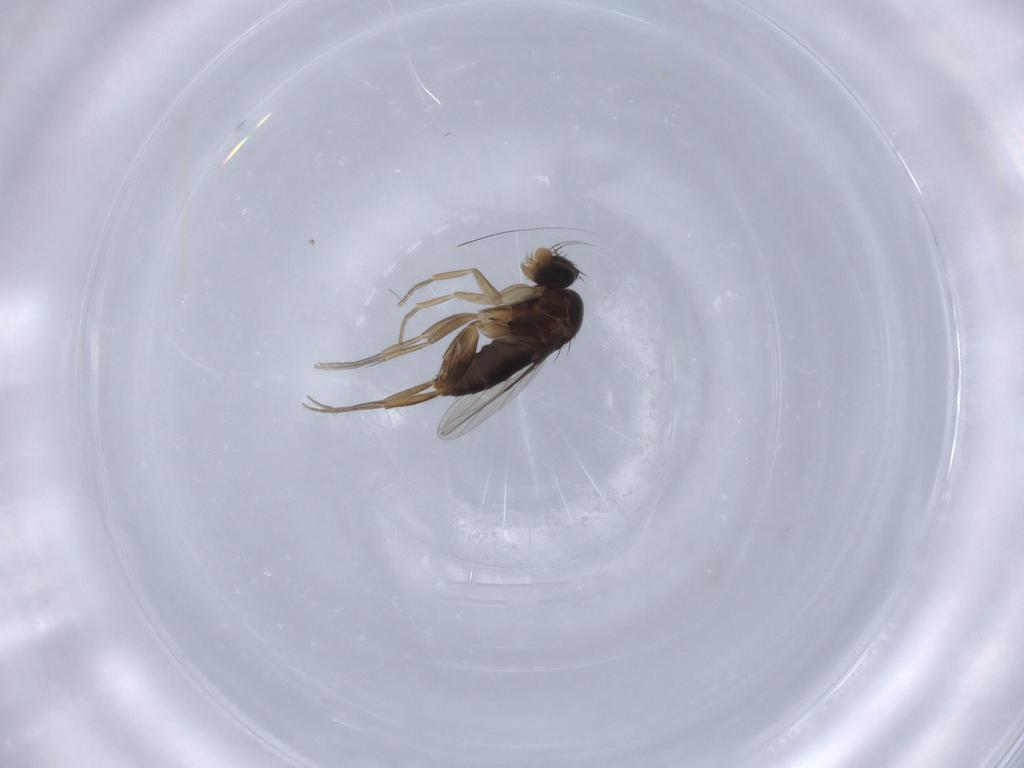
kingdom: Animalia
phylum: Arthropoda
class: Insecta
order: Diptera
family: Phoridae
